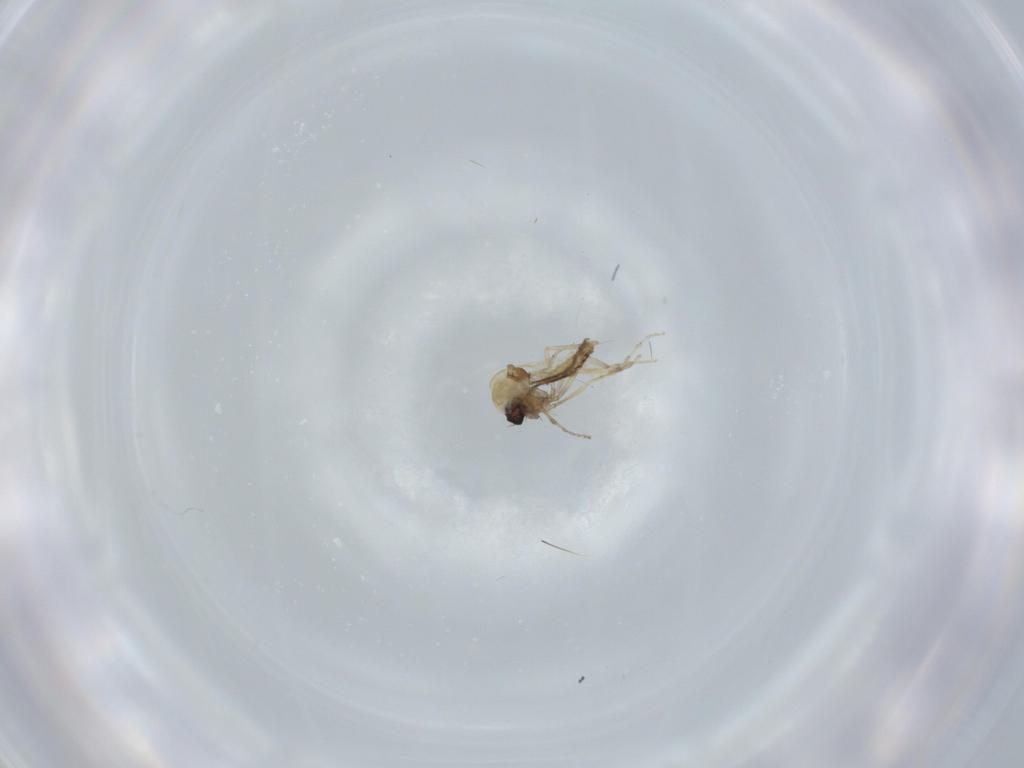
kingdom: Animalia
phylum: Arthropoda
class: Insecta
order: Diptera
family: Ceratopogonidae
